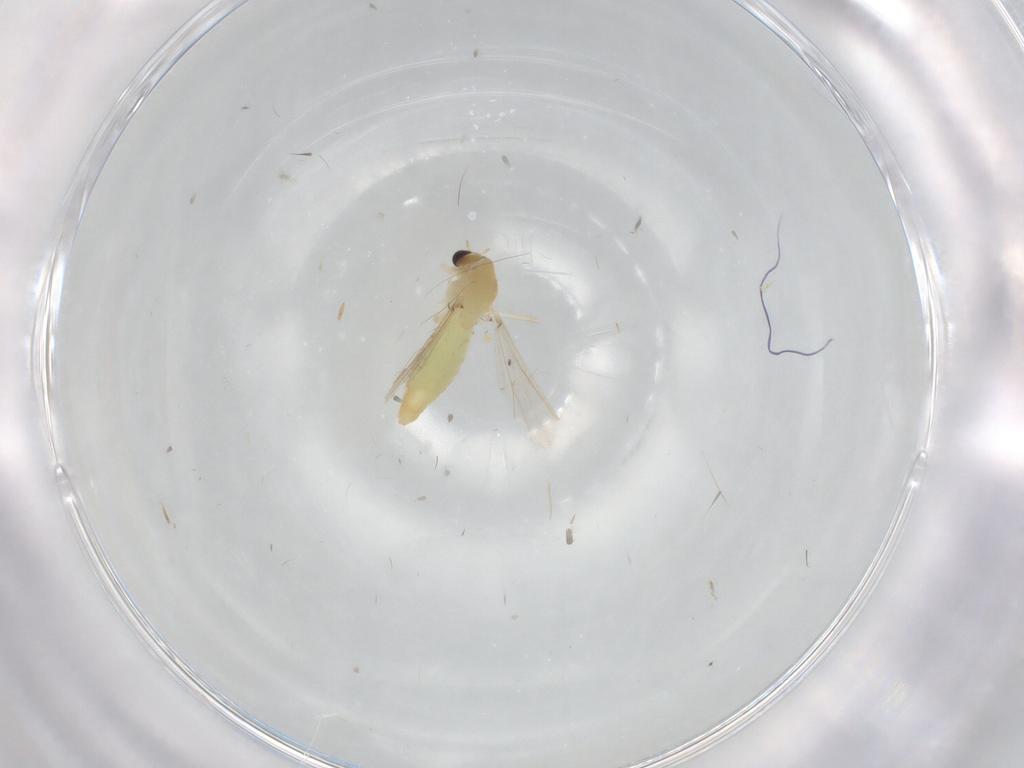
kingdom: Animalia
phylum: Arthropoda
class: Insecta
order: Diptera
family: Chironomidae
